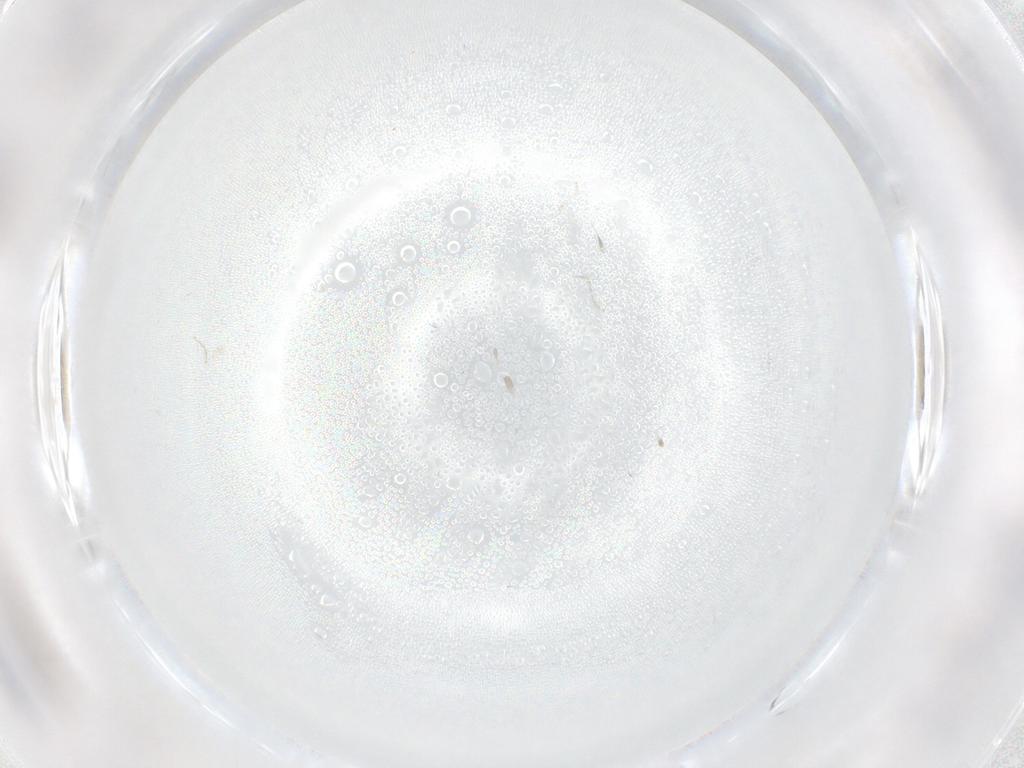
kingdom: Animalia
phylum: Arthropoda
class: Insecta
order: Diptera
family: Cecidomyiidae
